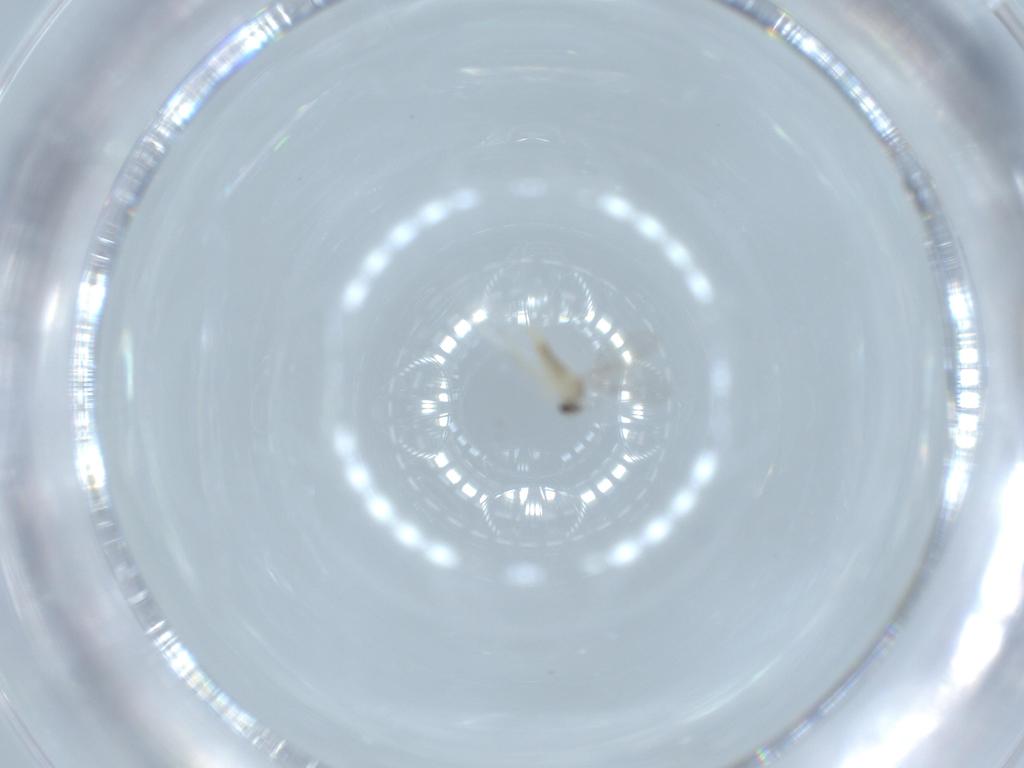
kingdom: Animalia
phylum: Arthropoda
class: Insecta
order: Diptera
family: Cecidomyiidae
